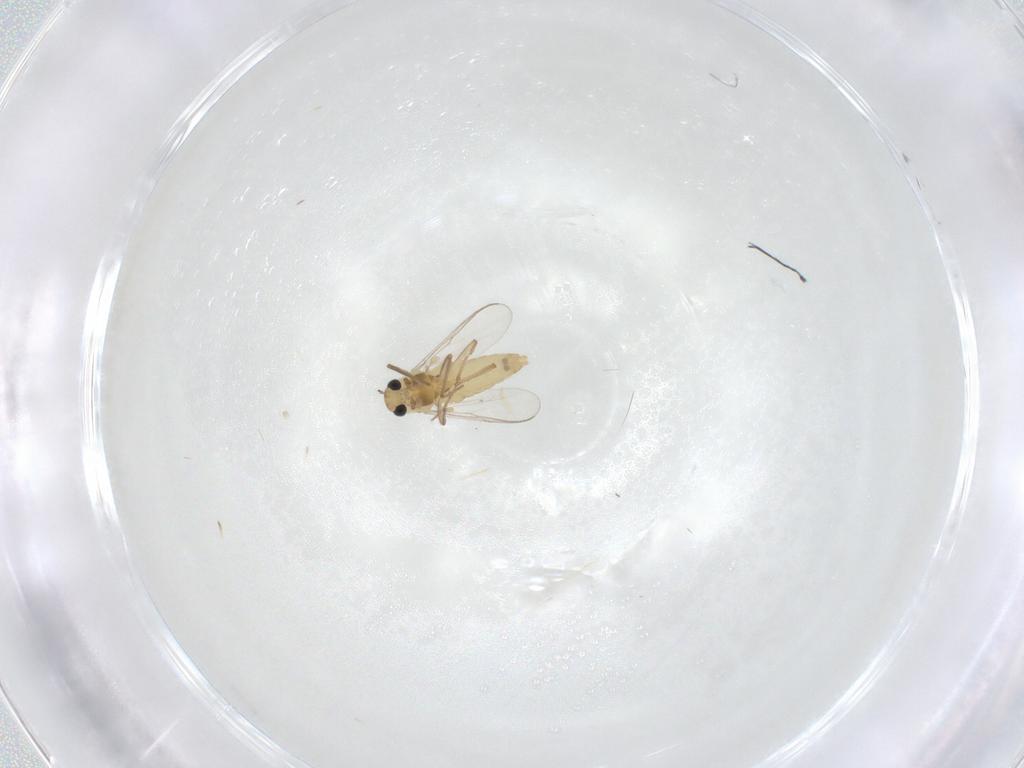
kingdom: Animalia
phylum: Arthropoda
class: Insecta
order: Diptera
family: Chironomidae
